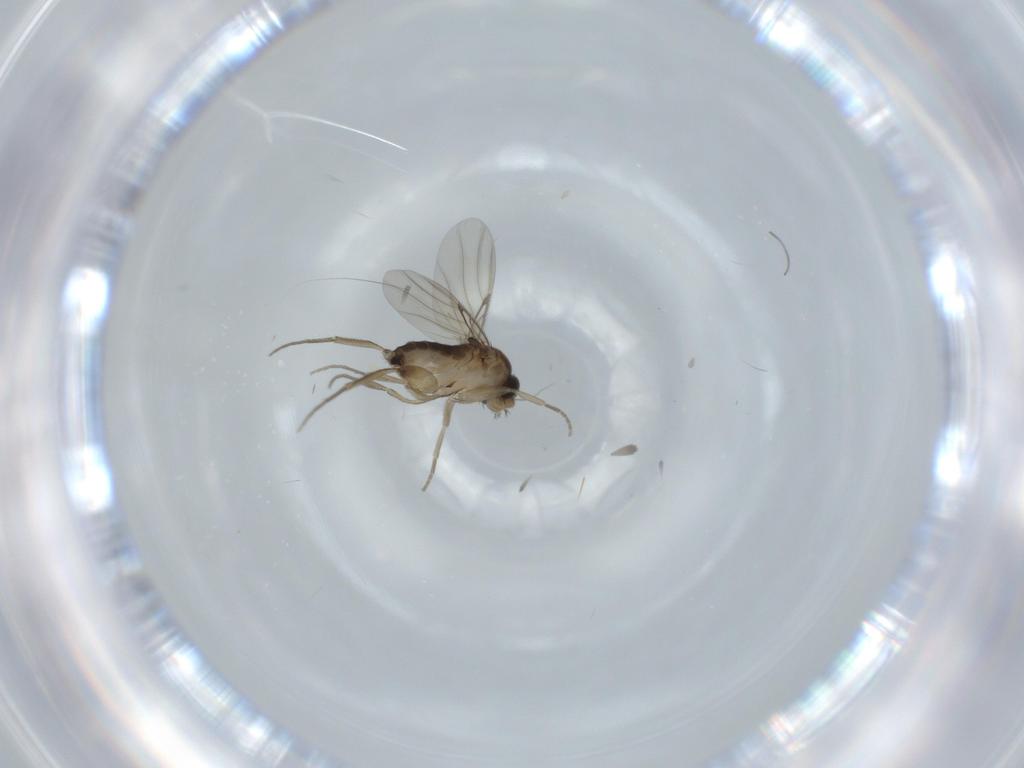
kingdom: Animalia
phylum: Arthropoda
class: Insecta
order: Diptera
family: Phoridae
